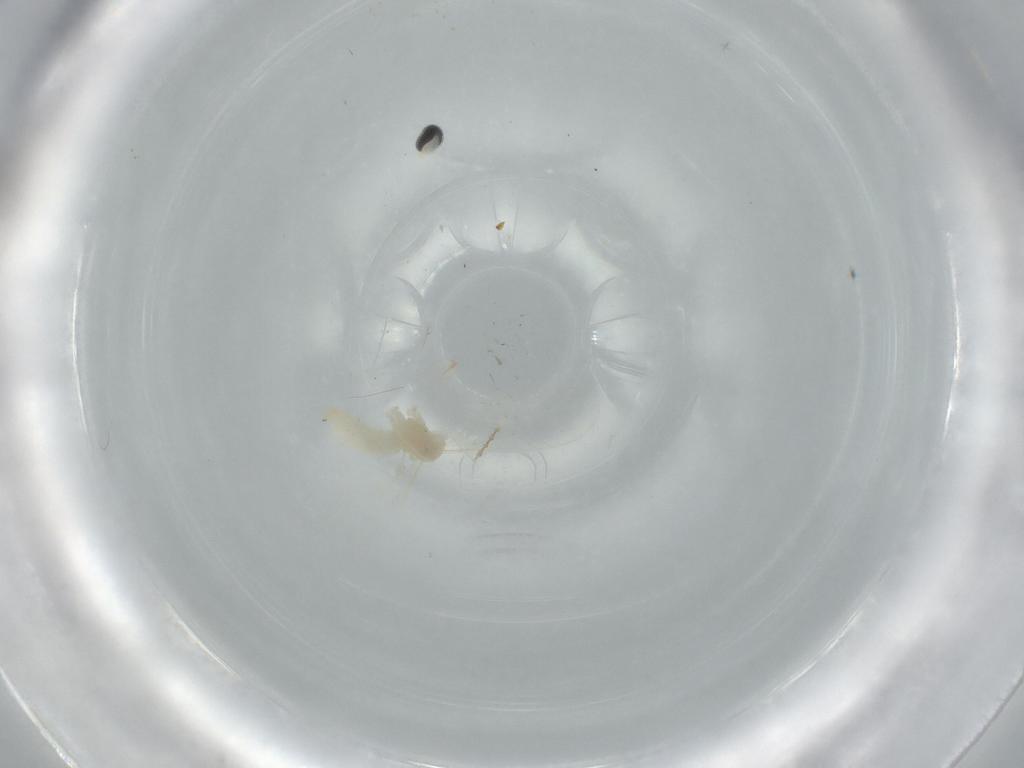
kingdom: Animalia
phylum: Arthropoda
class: Insecta
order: Diptera
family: Cecidomyiidae
